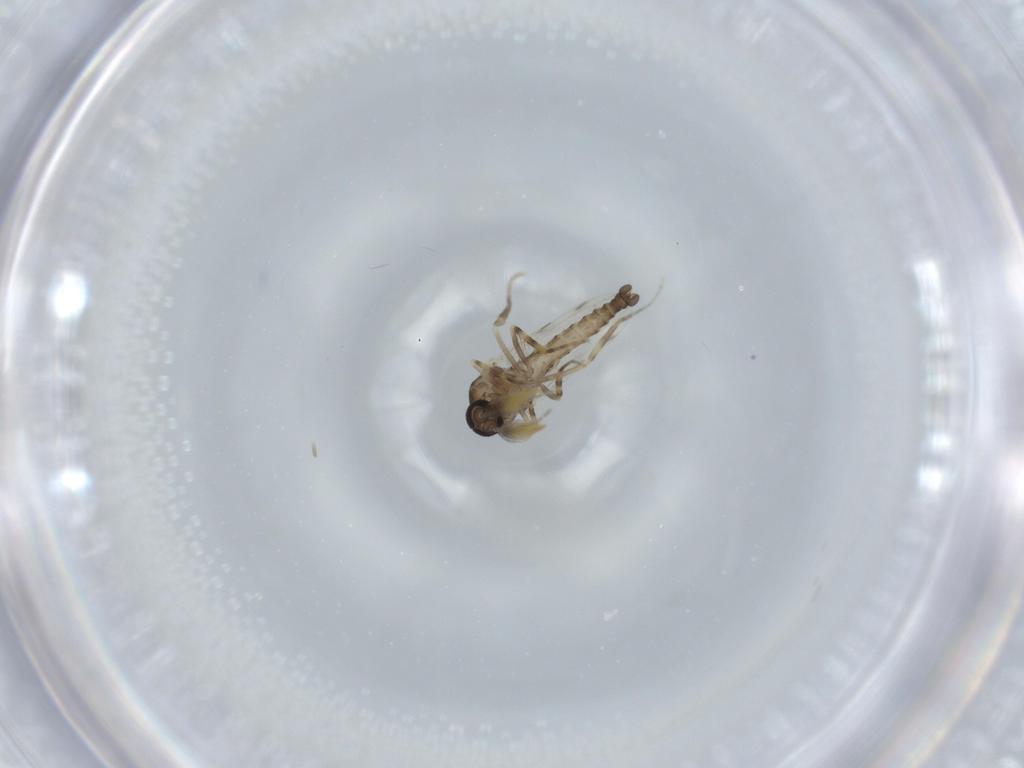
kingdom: Animalia
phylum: Arthropoda
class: Insecta
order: Diptera
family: Ceratopogonidae
